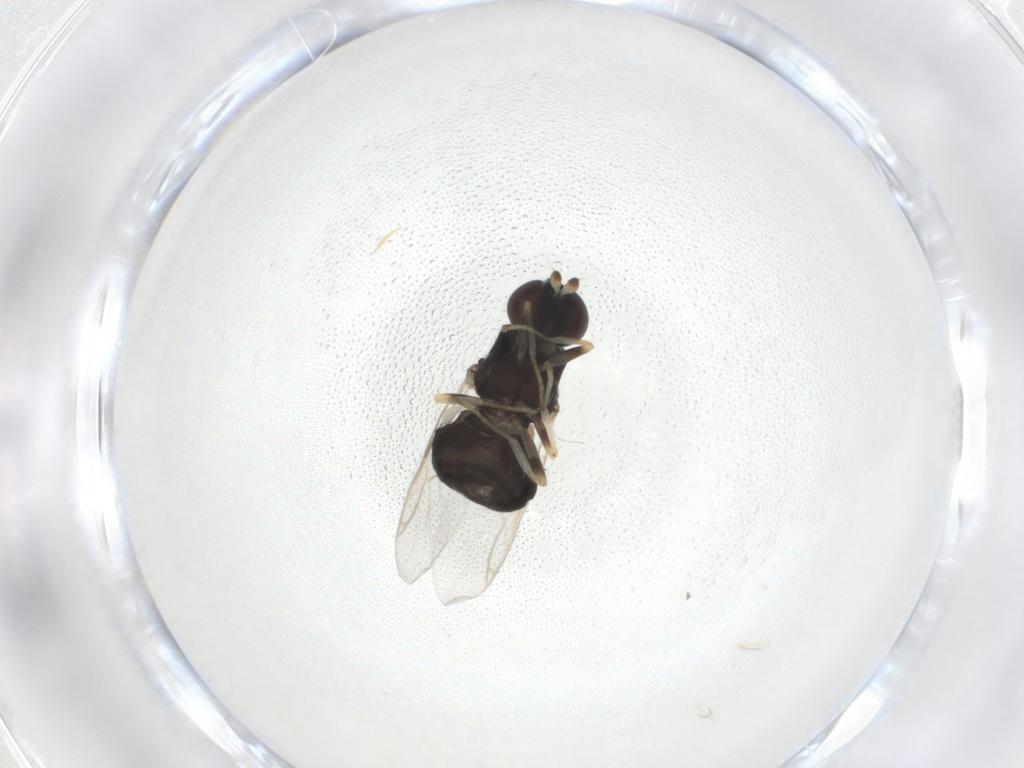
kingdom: Animalia
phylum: Arthropoda
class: Insecta
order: Diptera
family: Stratiomyidae
